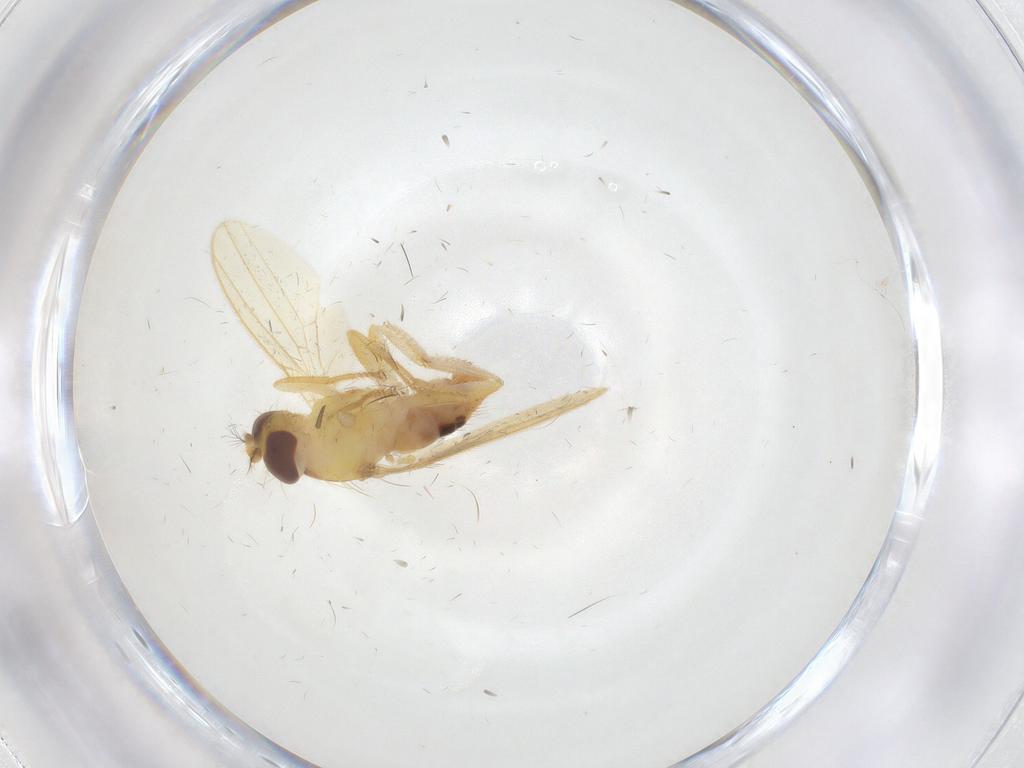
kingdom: Animalia
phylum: Arthropoda
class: Insecta
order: Diptera
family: Periscelididae
